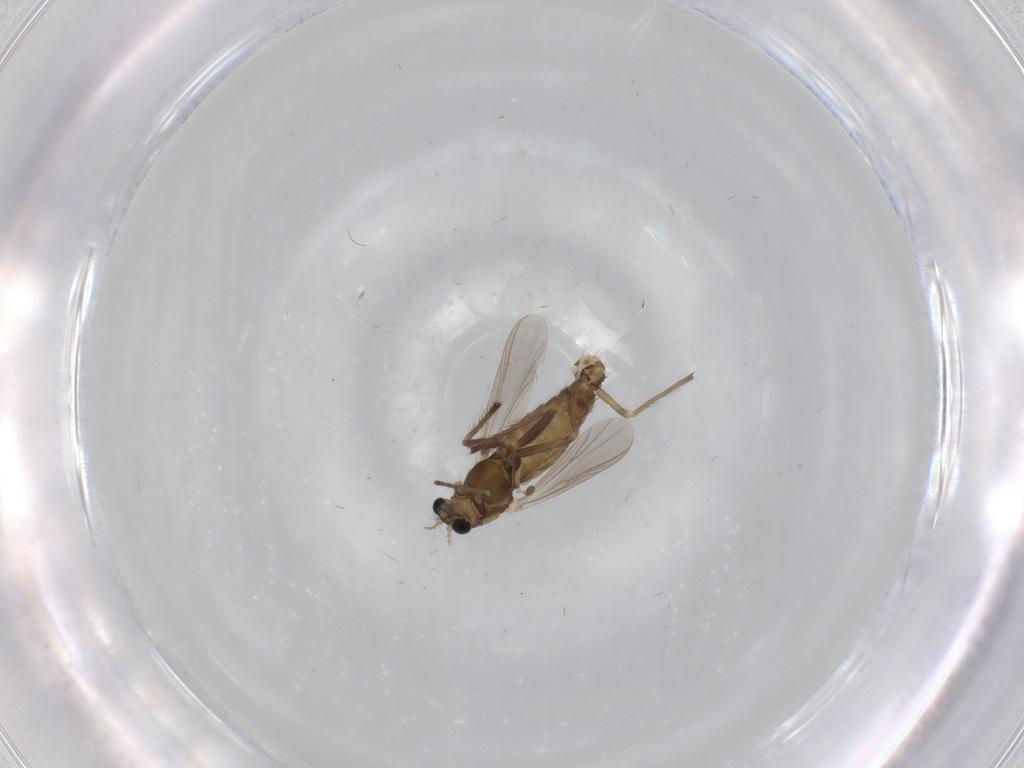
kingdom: Animalia
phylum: Arthropoda
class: Insecta
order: Diptera
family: Chironomidae
